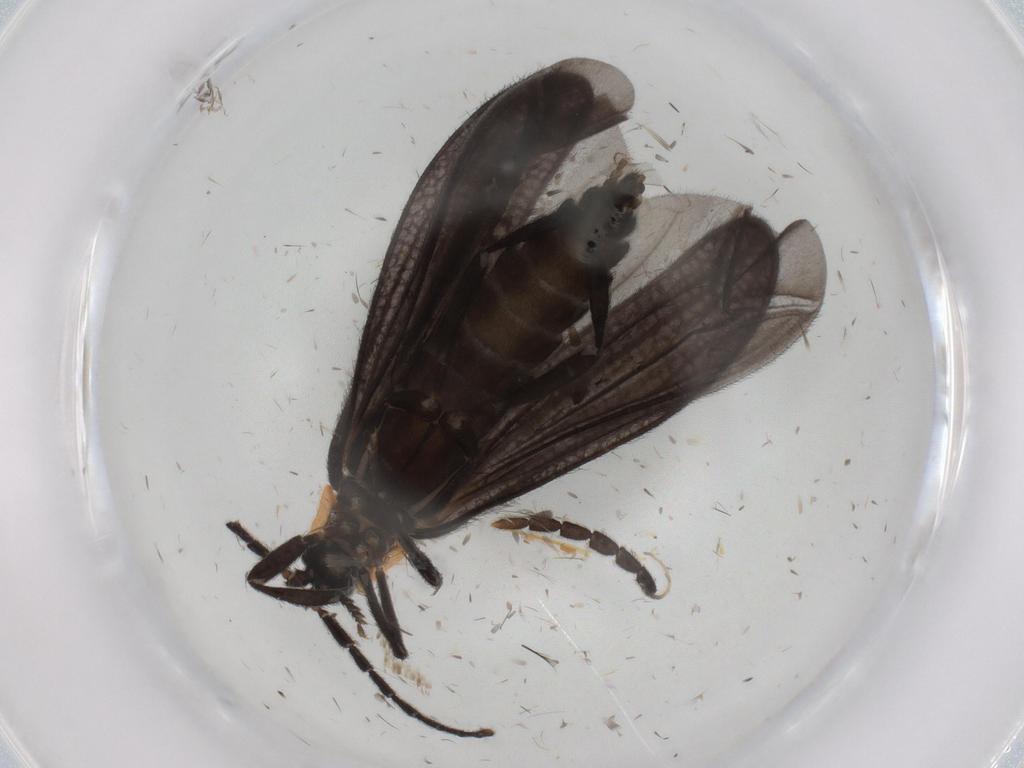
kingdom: Animalia
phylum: Arthropoda
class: Insecta
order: Coleoptera
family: Lycidae
